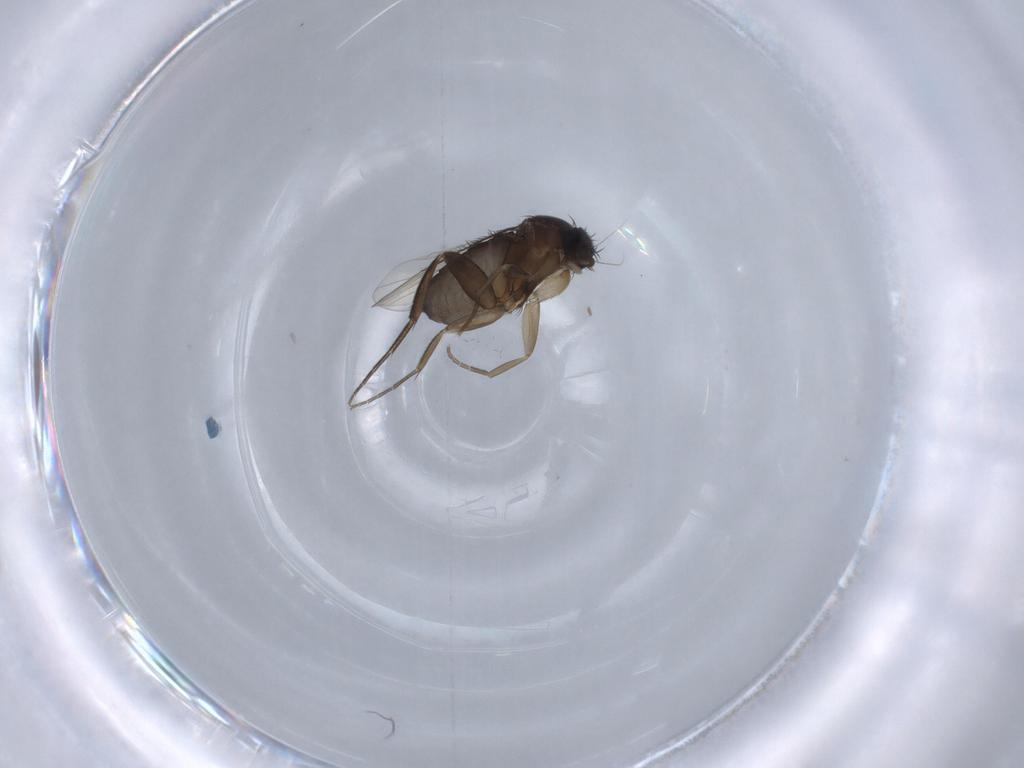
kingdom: Animalia
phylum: Arthropoda
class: Insecta
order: Diptera
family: Phoridae
